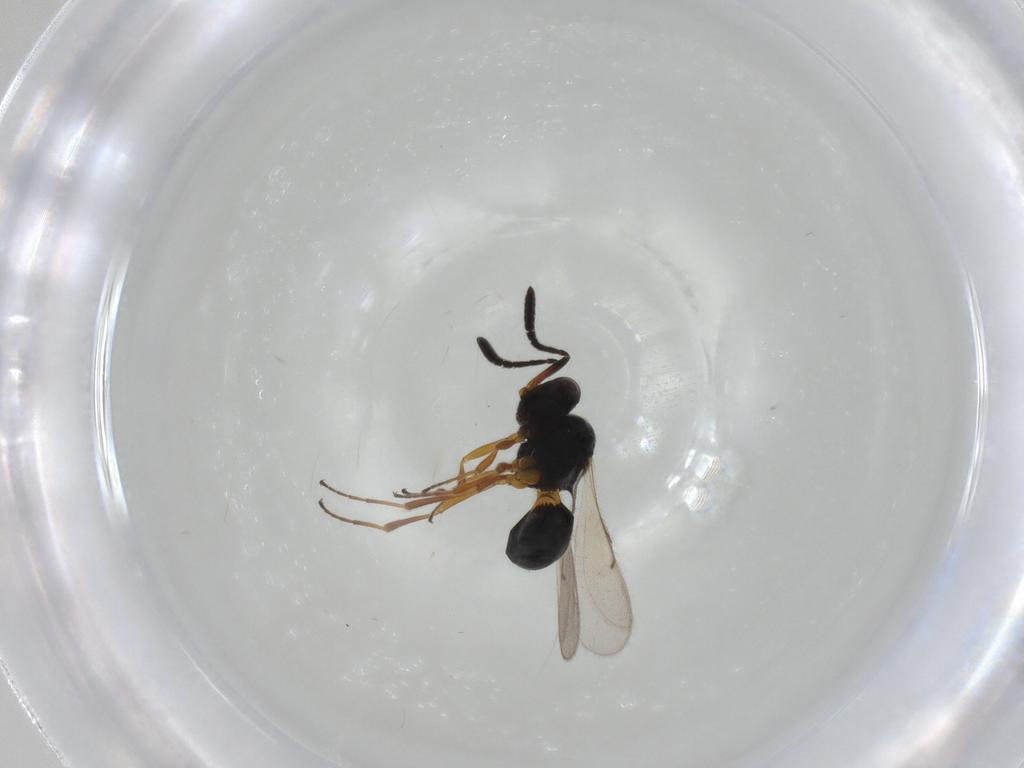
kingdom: Animalia
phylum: Arthropoda
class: Insecta
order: Hymenoptera
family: Scelionidae
